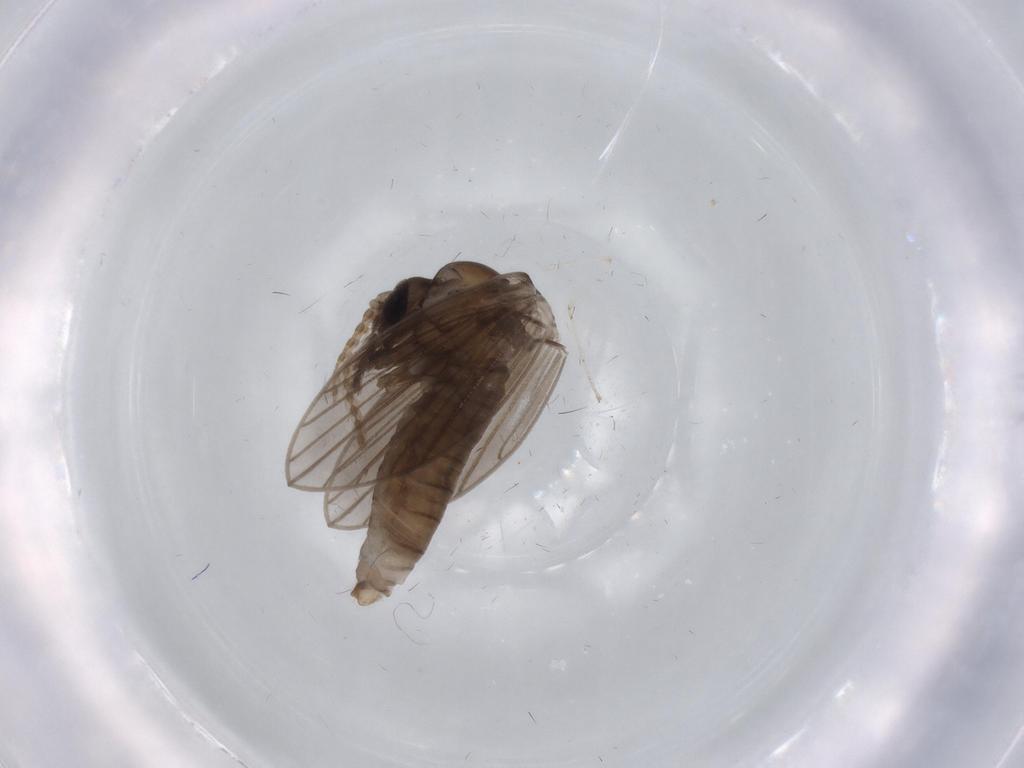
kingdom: Animalia
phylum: Arthropoda
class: Insecta
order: Diptera
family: Psychodidae
